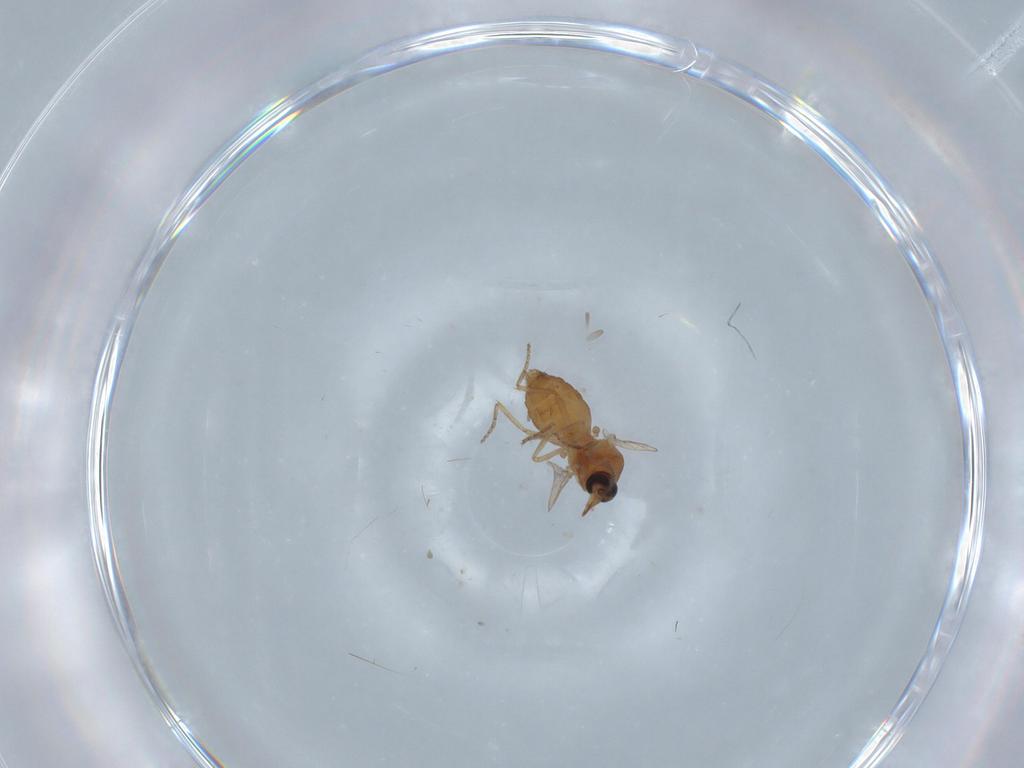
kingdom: Animalia
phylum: Arthropoda
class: Insecta
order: Diptera
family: Ceratopogonidae
